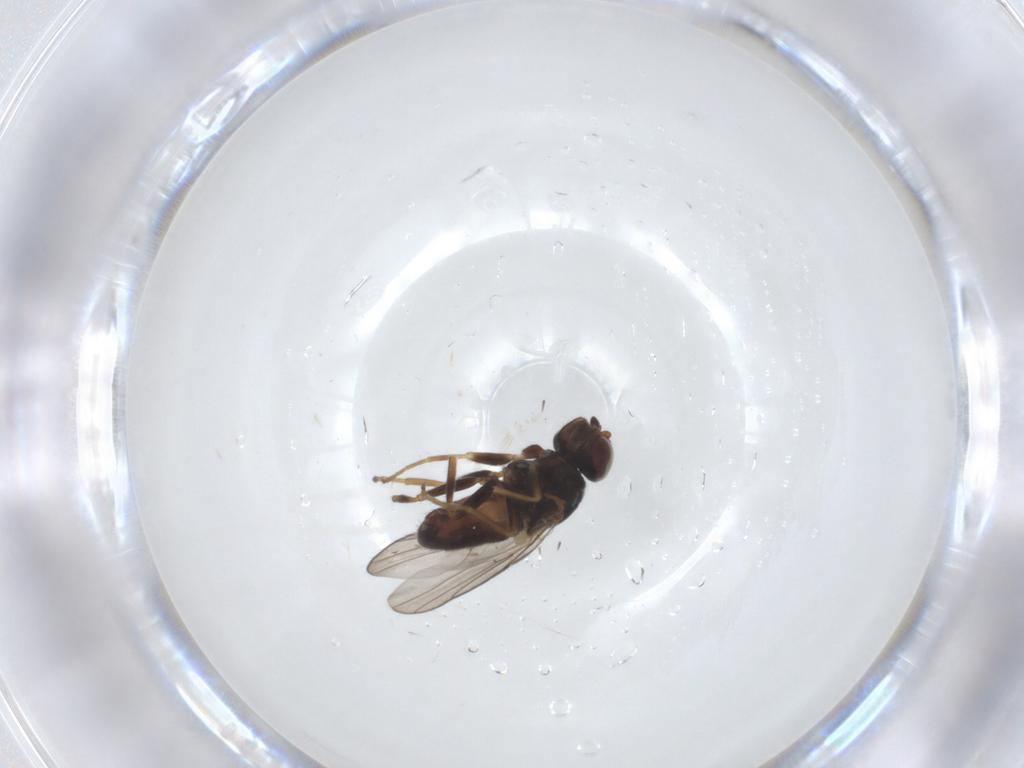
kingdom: Animalia
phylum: Arthropoda
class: Insecta
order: Diptera
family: Chloropidae
